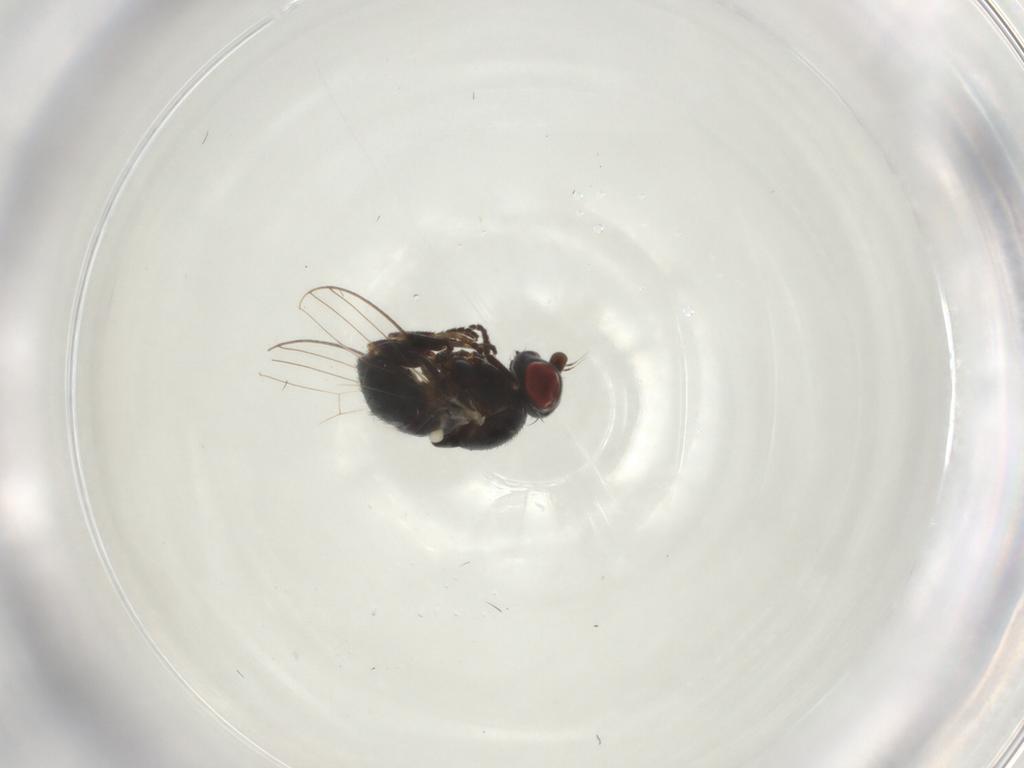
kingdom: Animalia
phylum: Arthropoda
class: Insecta
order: Diptera
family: Chamaemyiidae
